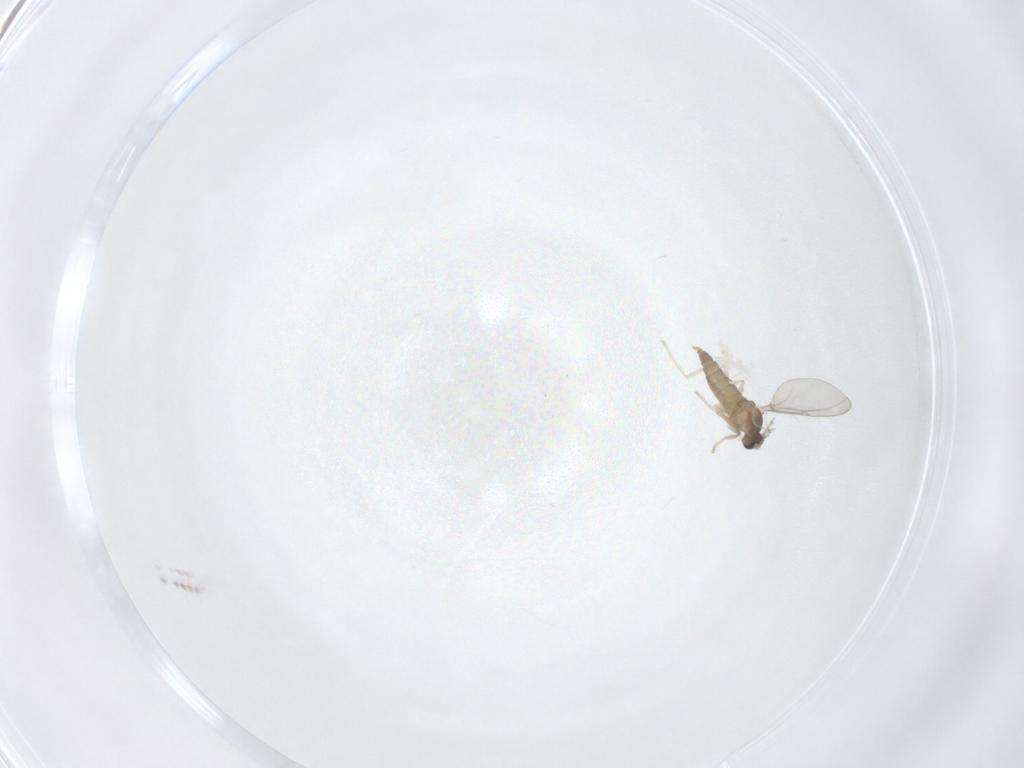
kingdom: Animalia
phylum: Arthropoda
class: Insecta
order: Diptera
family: Cecidomyiidae
